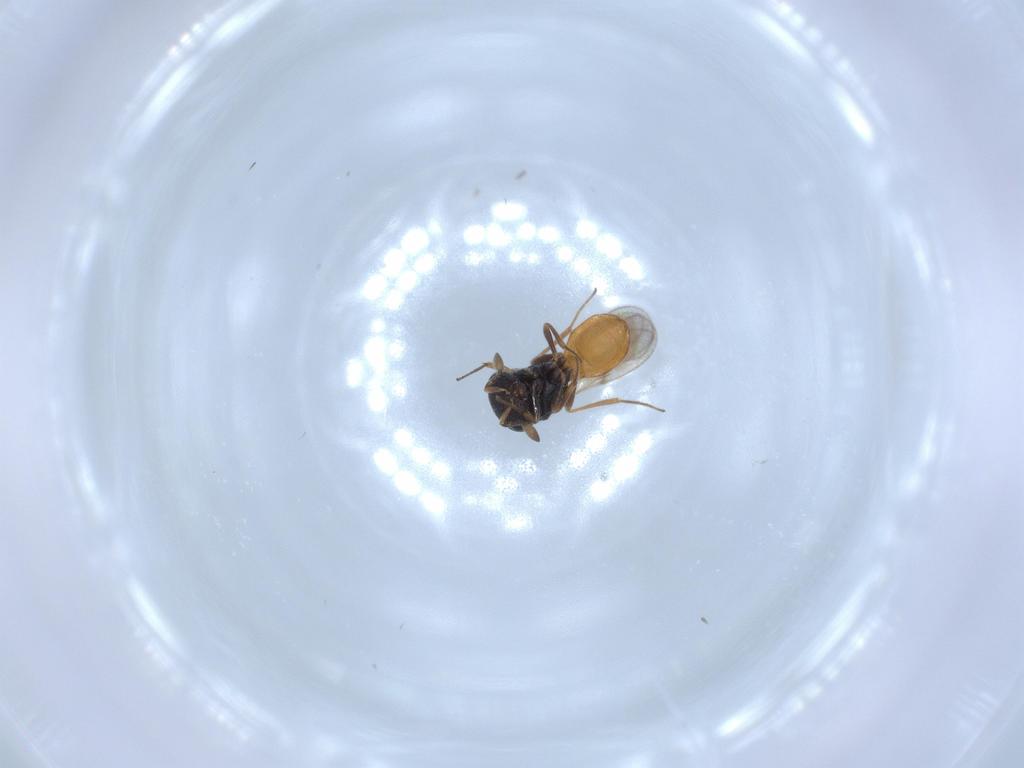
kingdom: Animalia
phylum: Arthropoda
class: Insecta
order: Hymenoptera
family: Scelionidae
